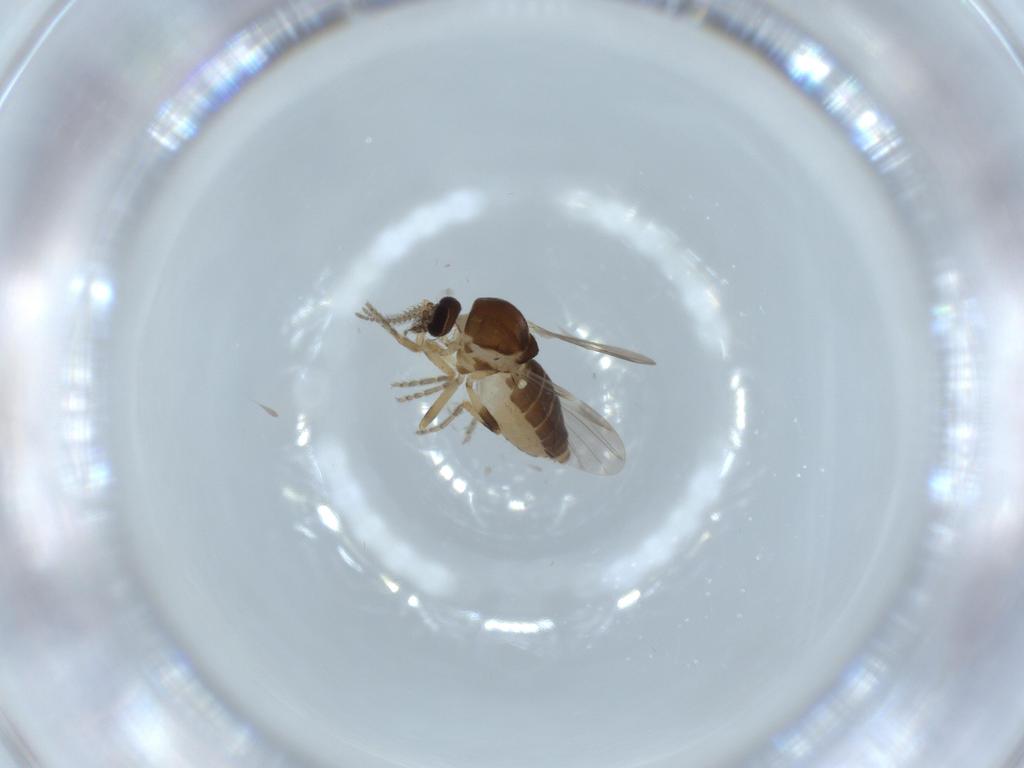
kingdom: Animalia
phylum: Arthropoda
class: Insecta
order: Diptera
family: Ceratopogonidae
